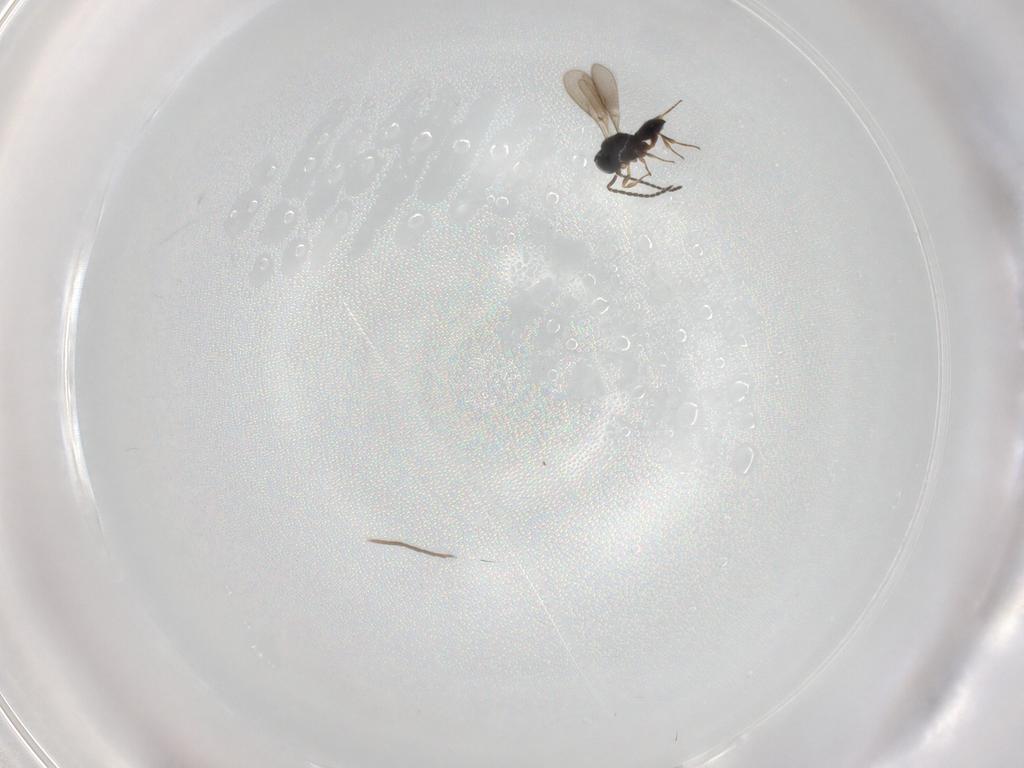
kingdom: Animalia
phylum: Arthropoda
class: Insecta
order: Hymenoptera
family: Scelionidae
